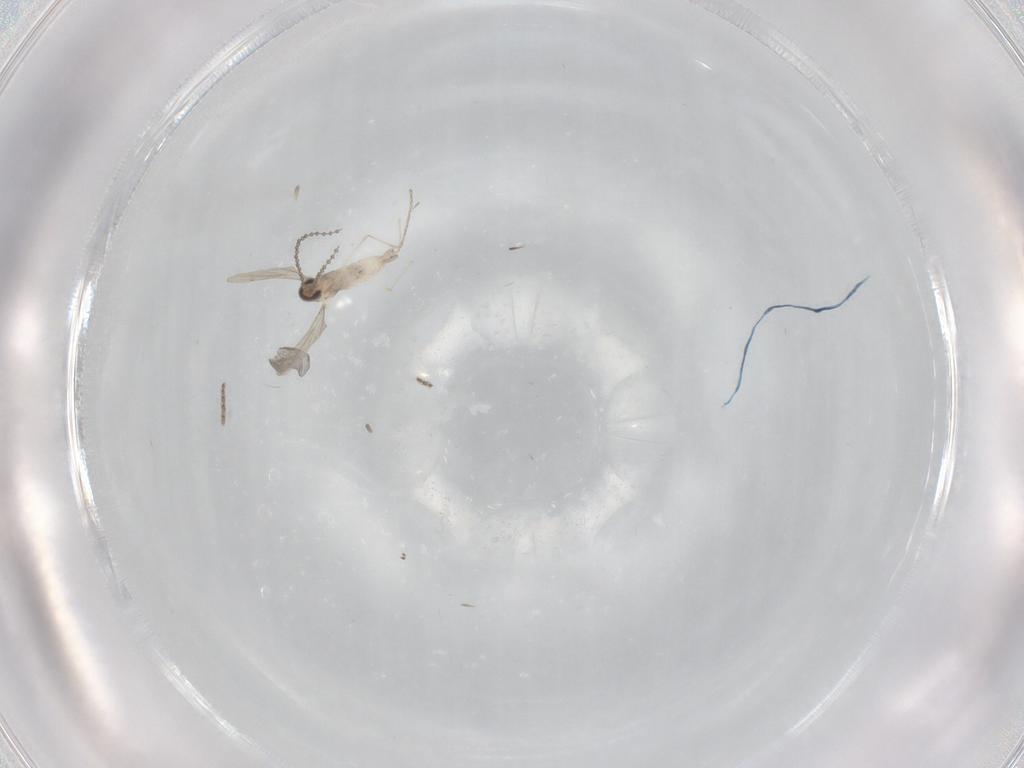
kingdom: Animalia
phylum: Arthropoda
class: Insecta
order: Diptera
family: Cecidomyiidae
